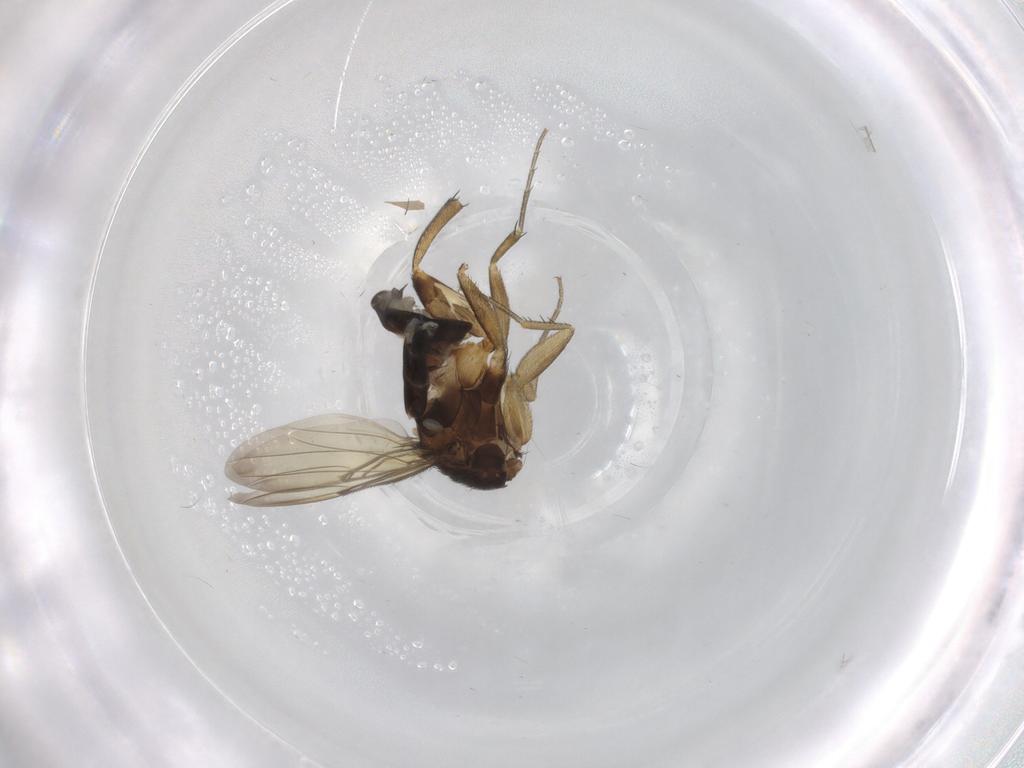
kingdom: Animalia
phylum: Arthropoda
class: Insecta
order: Diptera
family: Phoridae
